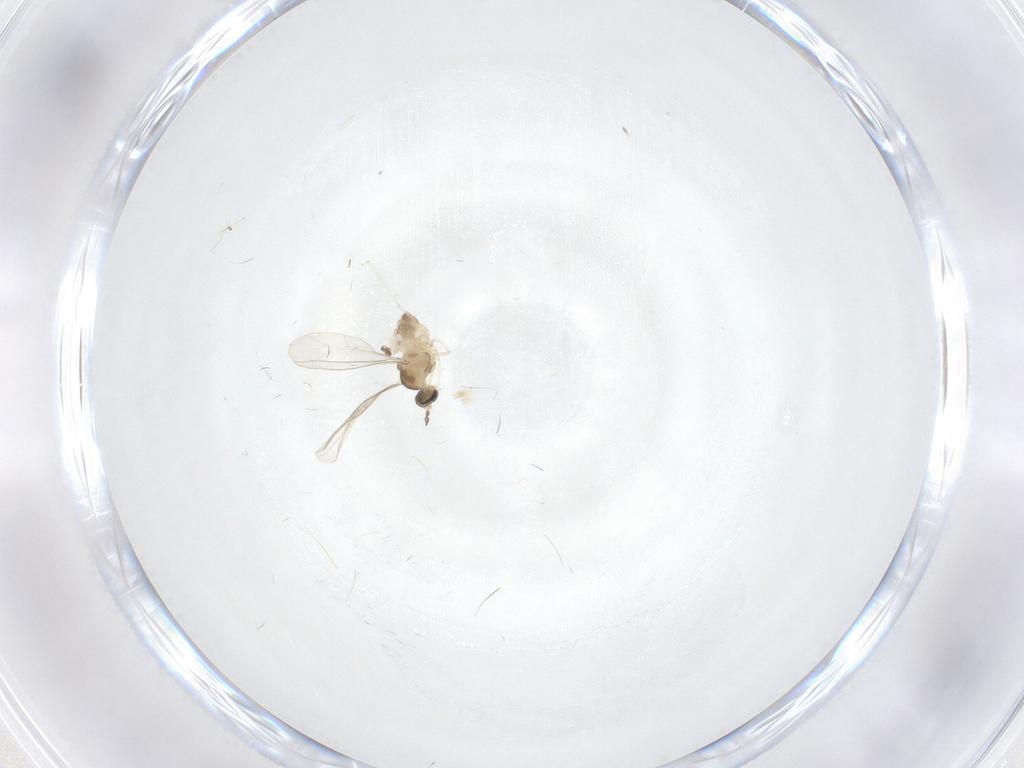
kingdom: Animalia
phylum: Arthropoda
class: Insecta
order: Diptera
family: Cecidomyiidae
